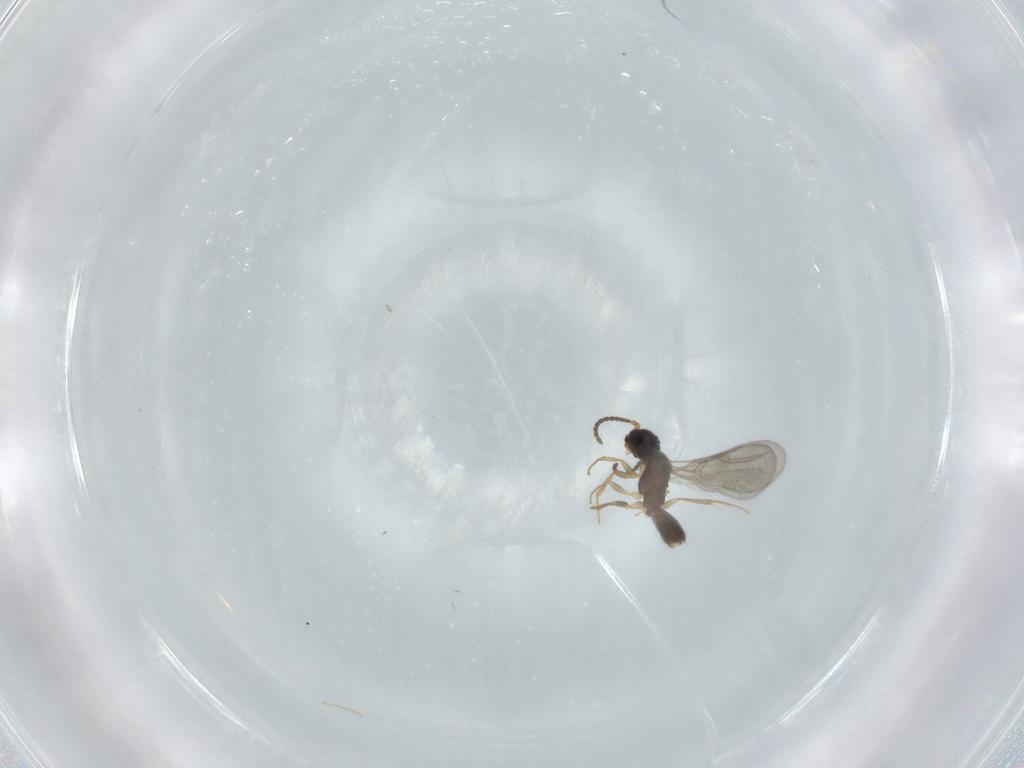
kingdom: Animalia
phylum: Arthropoda
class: Insecta
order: Hymenoptera
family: Bethylidae
